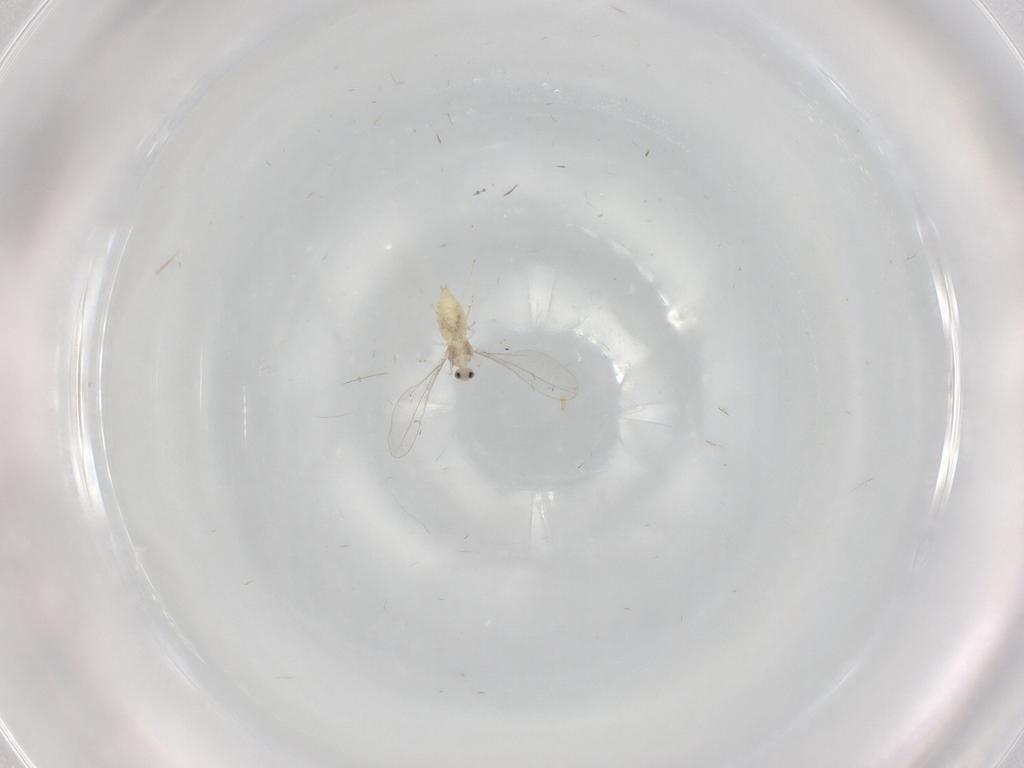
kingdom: Animalia
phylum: Arthropoda
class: Insecta
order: Diptera
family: Cecidomyiidae
